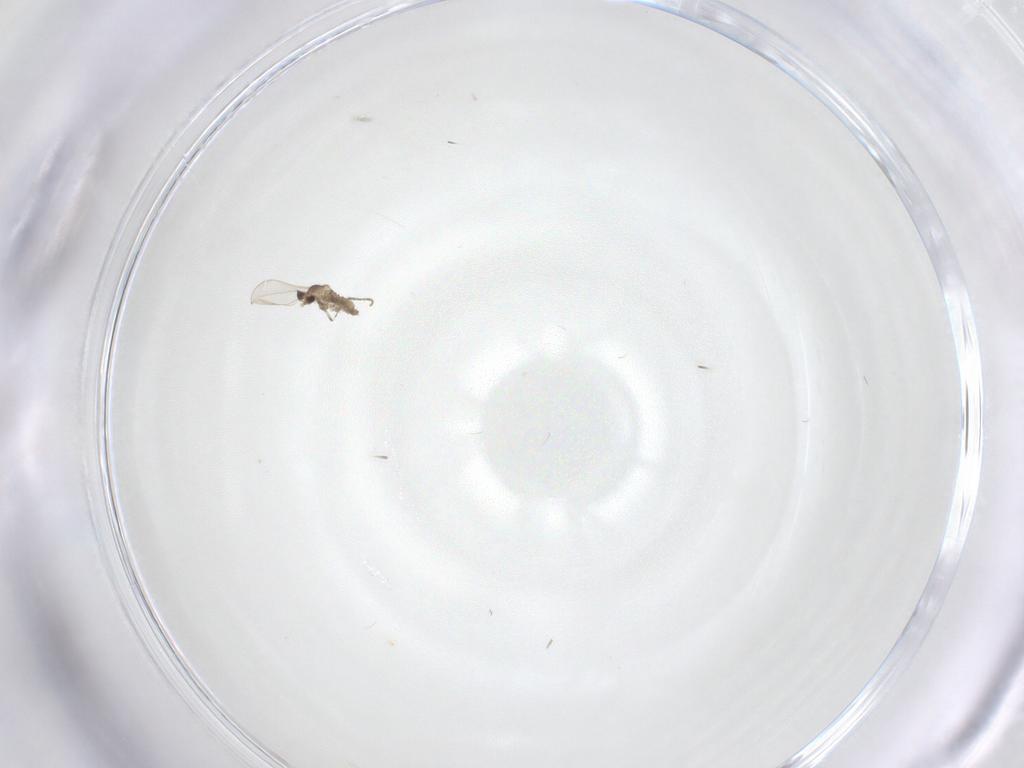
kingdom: Animalia
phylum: Arthropoda
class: Insecta
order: Diptera
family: Cecidomyiidae
